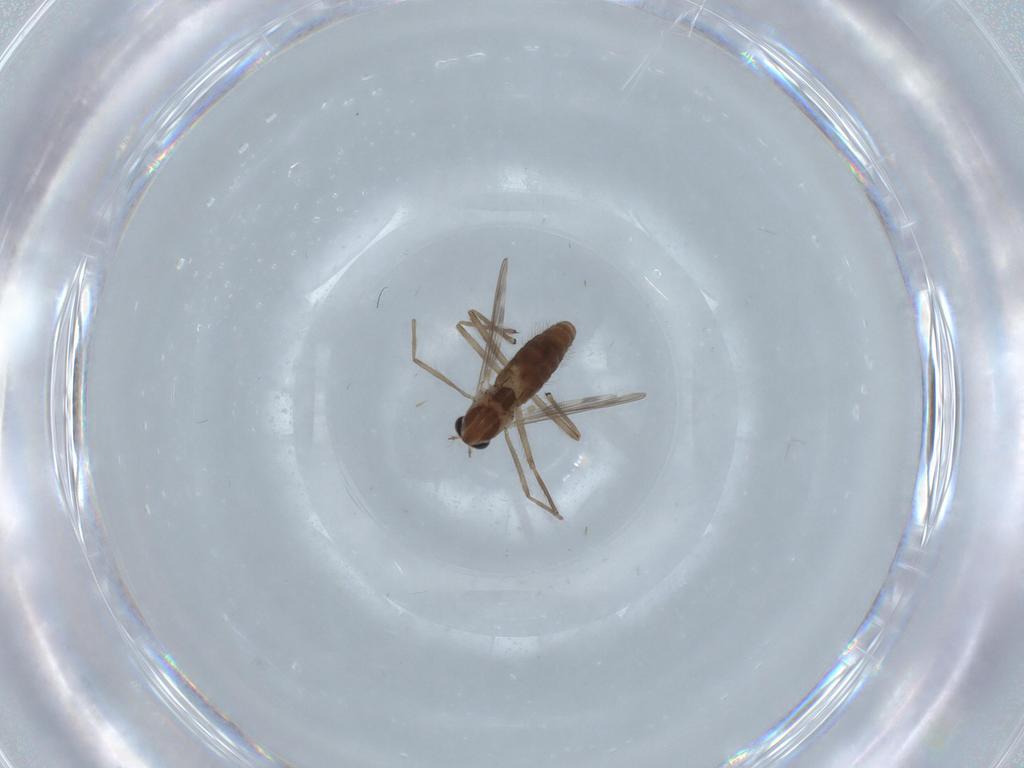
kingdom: Animalia
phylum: Arthropoda
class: Insecta
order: Diptera
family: Chironomidae
